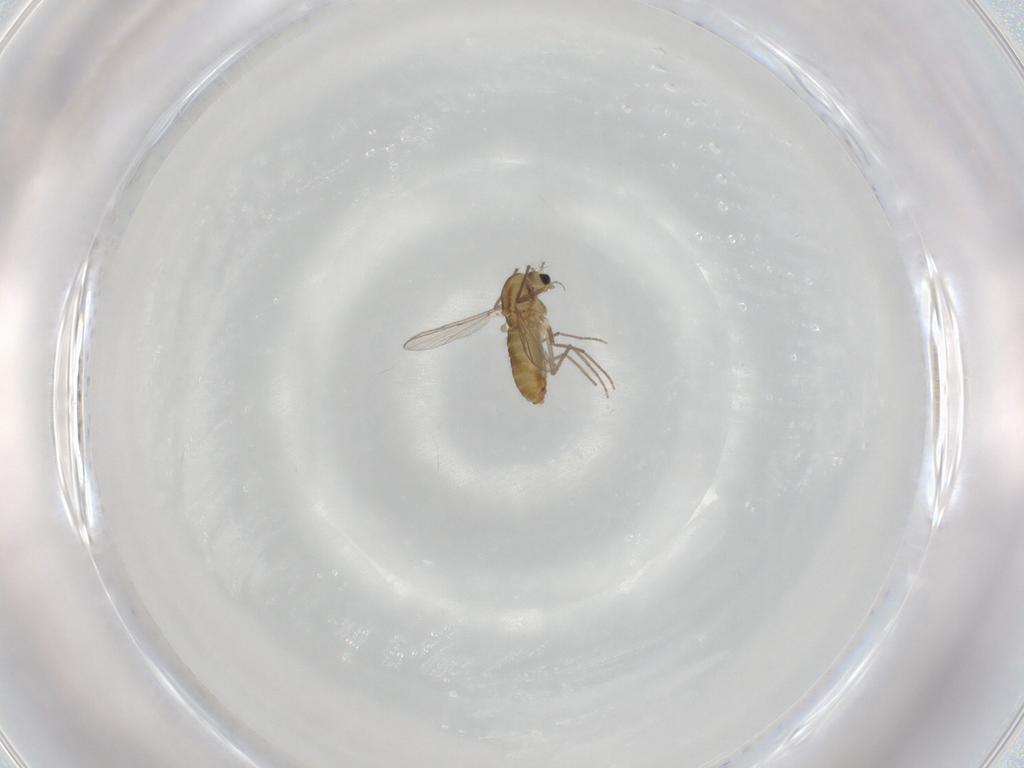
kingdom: Animalia
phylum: Arthropoda
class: Insecta
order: Diptera
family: Chironomidae
